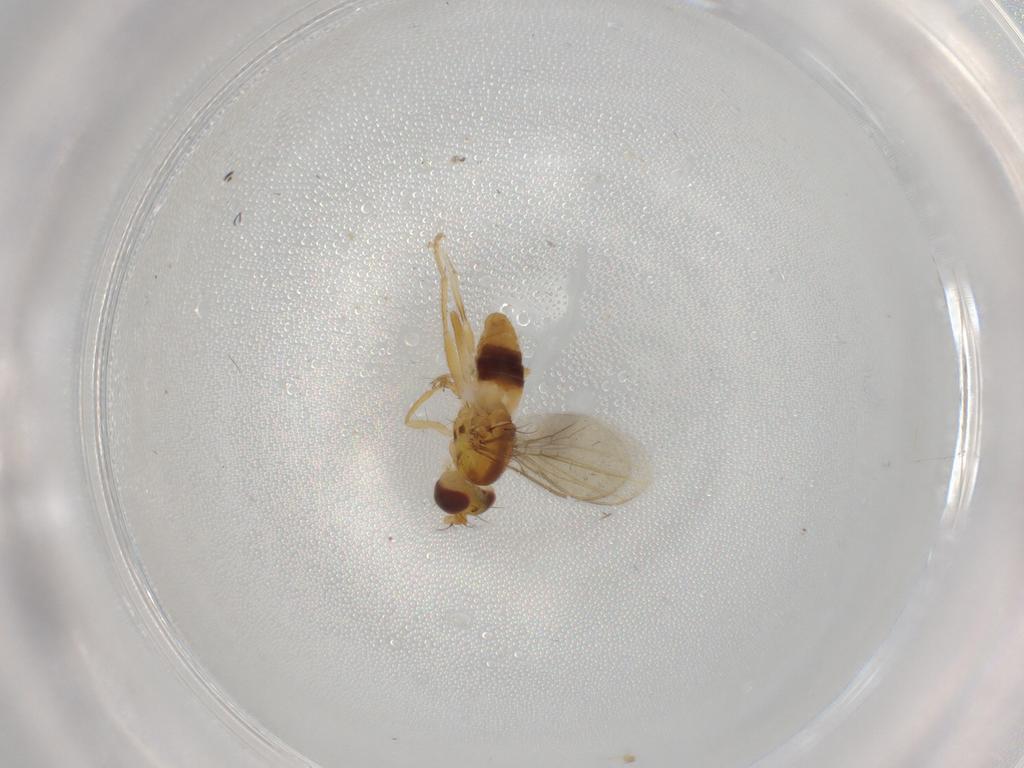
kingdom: Animalia
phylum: Arthropoda
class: Insecta
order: Diptera
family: Periscelididae
